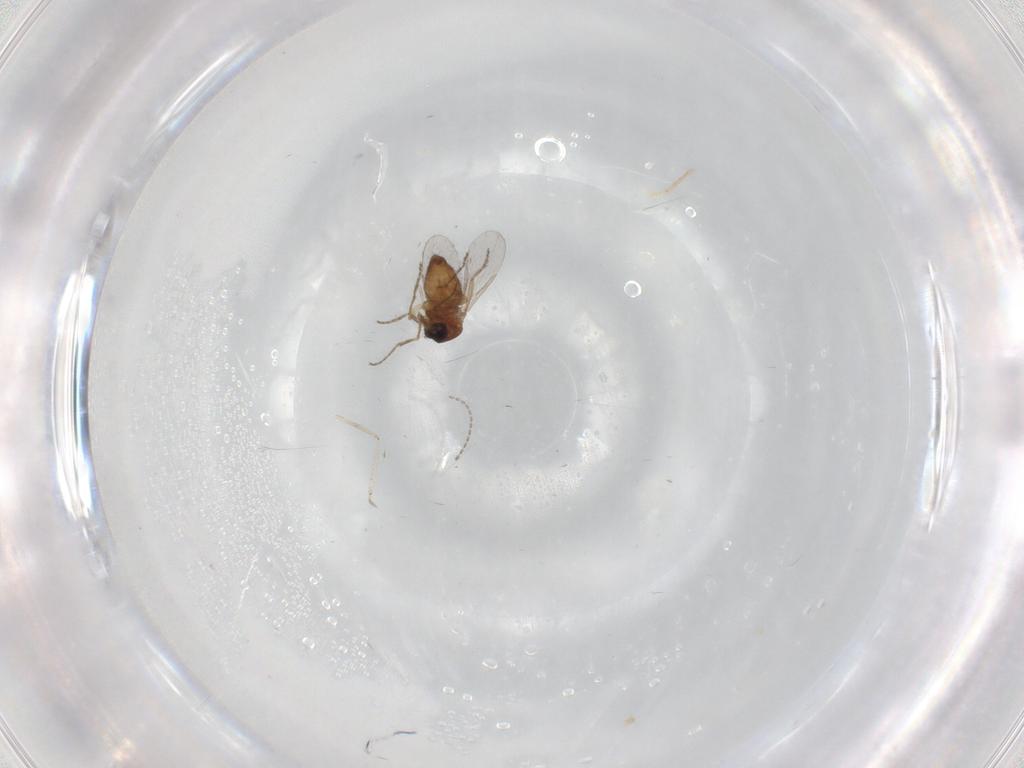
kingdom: Animalia
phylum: Arthropoda
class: Insecta
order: Diptera
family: Ceratopogonidae
